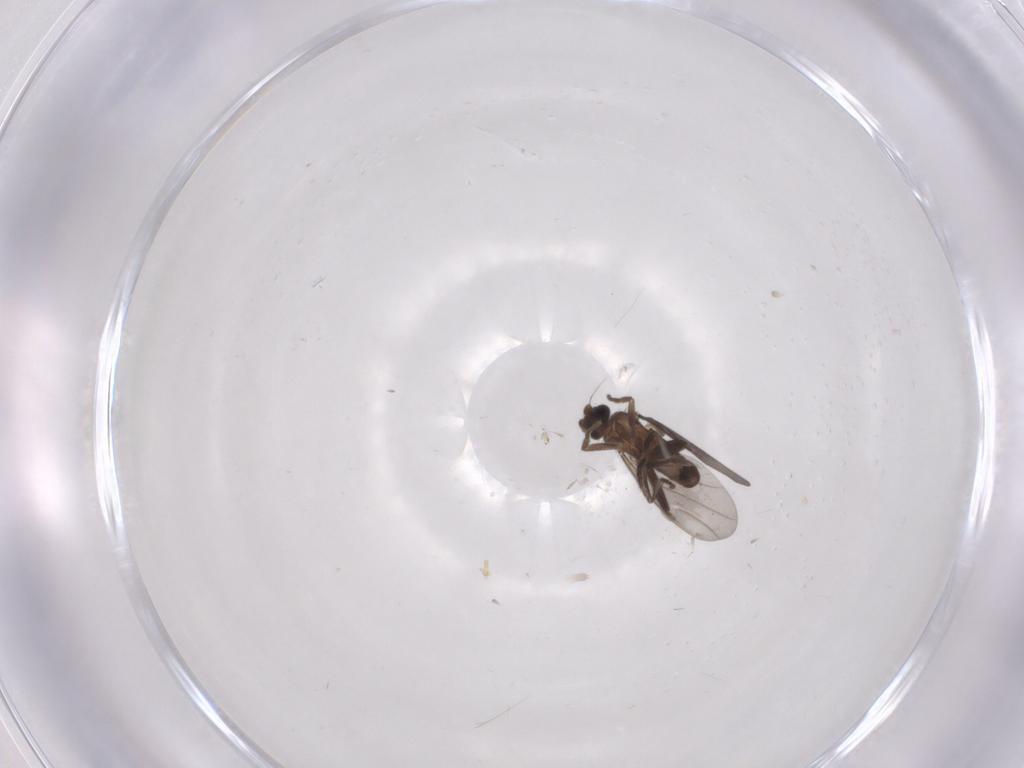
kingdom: Animalia
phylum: Arthropoda
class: Insecta
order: Diptera
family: Phoridae
